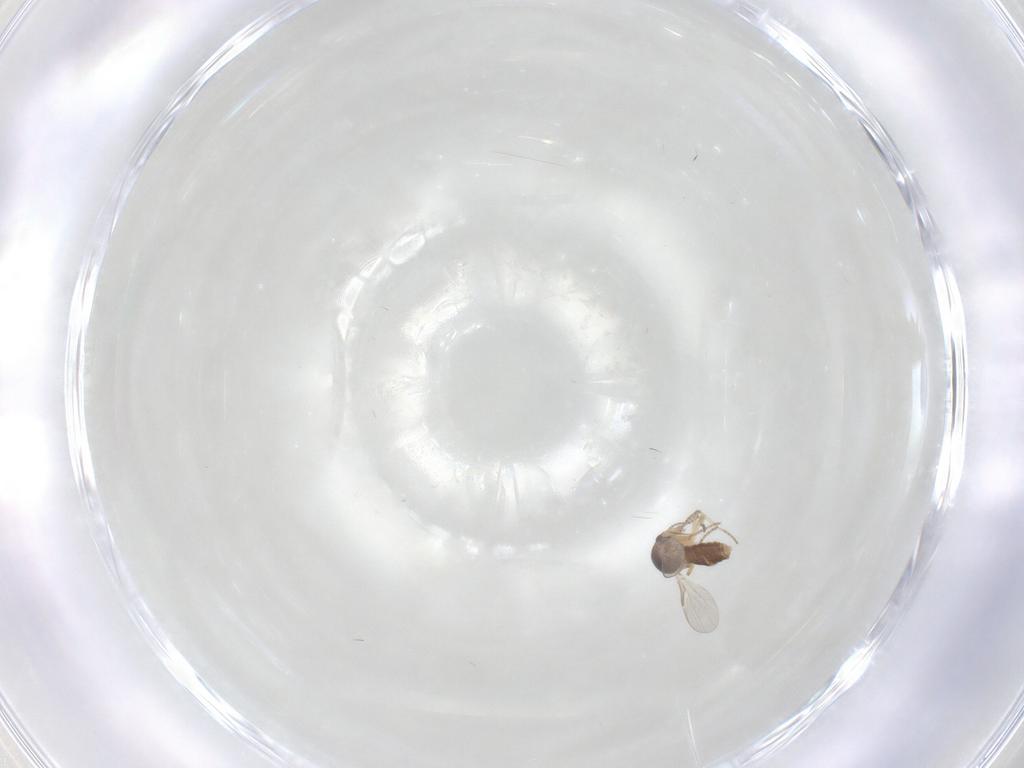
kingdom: Animalia
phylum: Arthropoda
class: Insecta
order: Diptera
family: Ceratopogonidae
